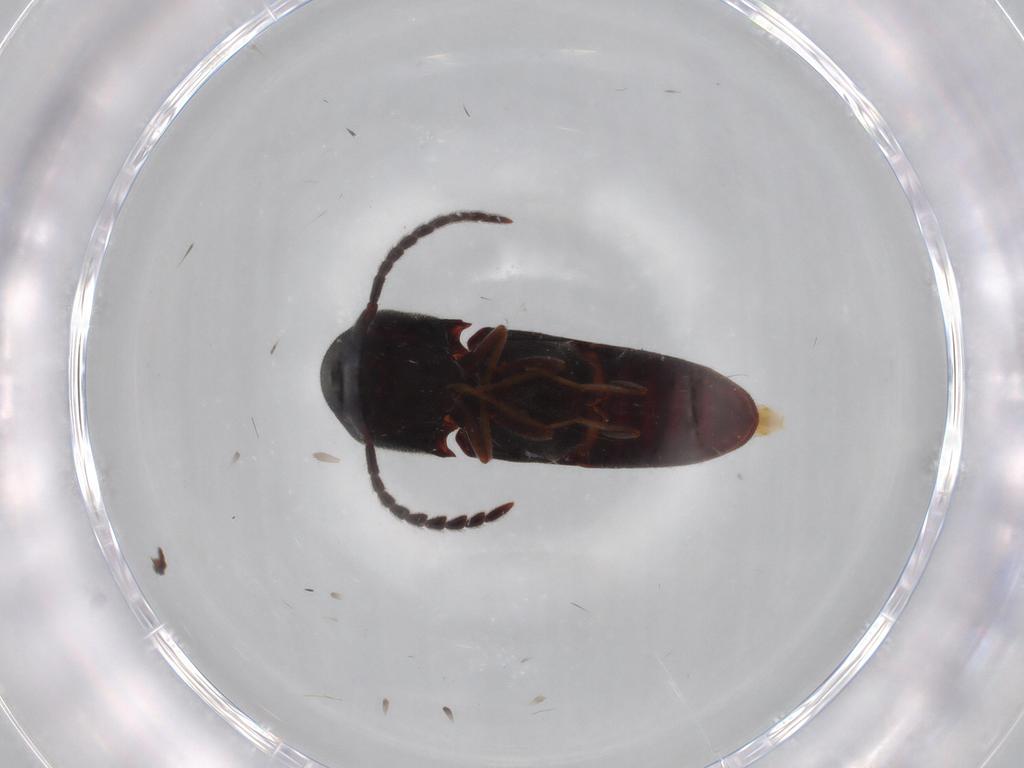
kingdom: Animalia
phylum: Arthropoda
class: Insecta
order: Coleoptera
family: Eucnemidae
